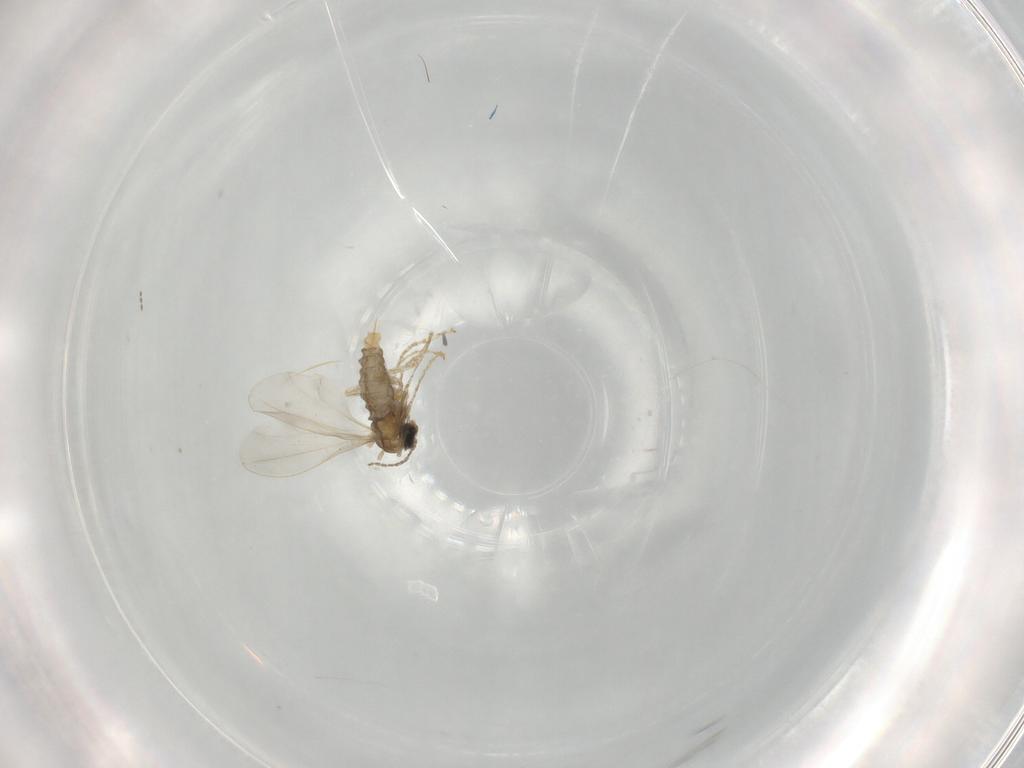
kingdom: Animalia
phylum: Arthropoda
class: Insecta
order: Diptera
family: Cecidomyiidae
